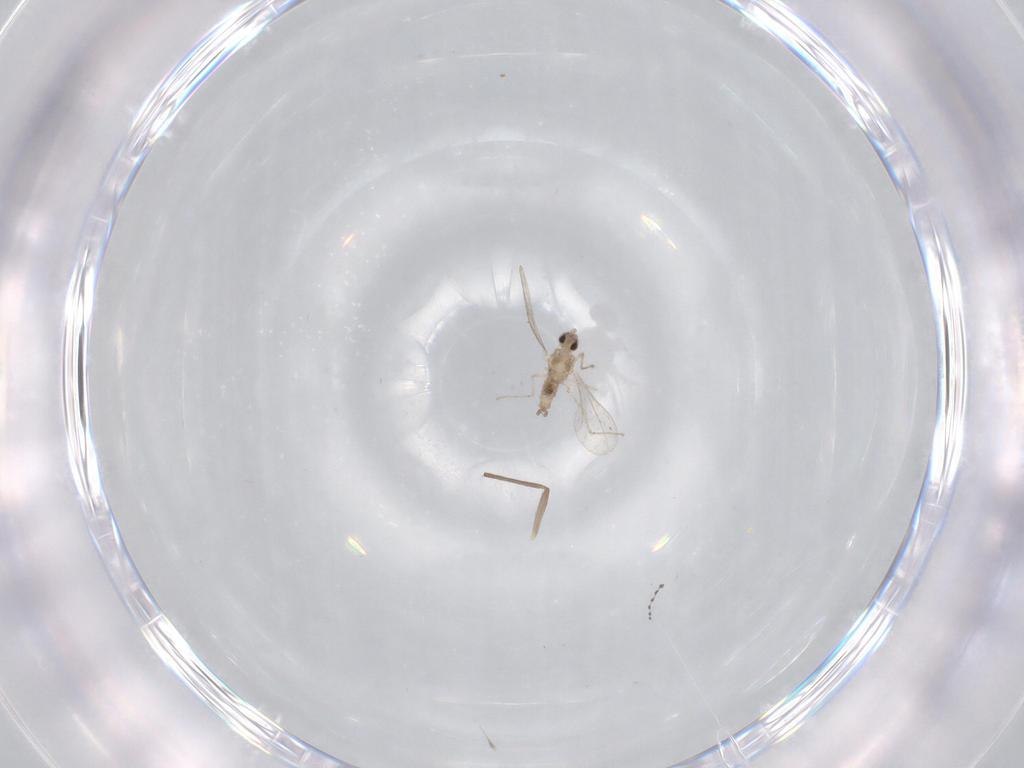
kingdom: Animalia
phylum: Arthropoda
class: Insecta
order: Diptera
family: Cecidomyiidae
